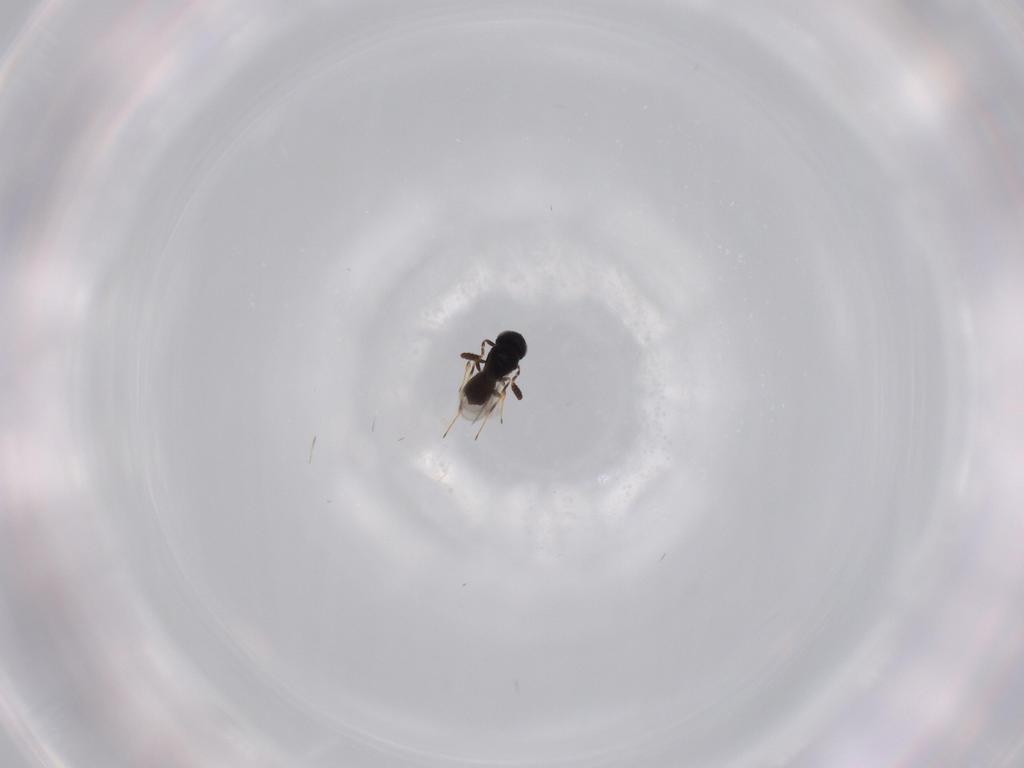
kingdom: Animalia
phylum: Arthropoda
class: Insecta
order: Hymenoptera
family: Scelionidae
